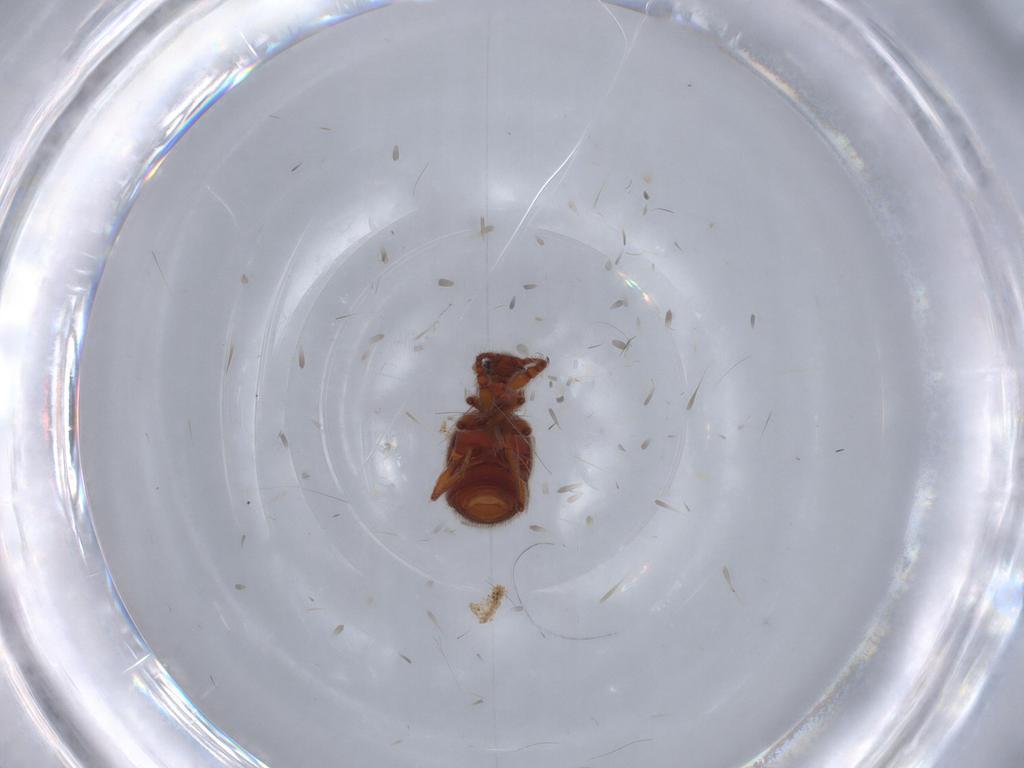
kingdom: Animalia
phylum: Arthropoda
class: Insecta
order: Coleoptera
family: Staphylinidae
